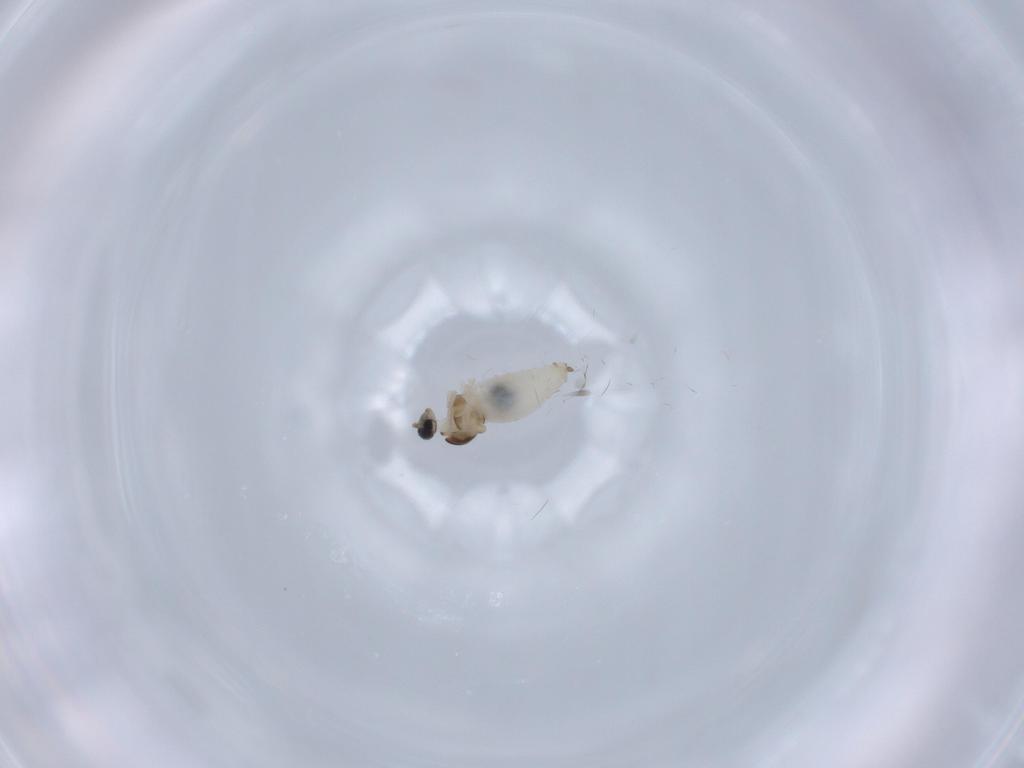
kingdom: Animalia
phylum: Arthropoda
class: Insecta
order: Diptera
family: Cecidomyiidae
